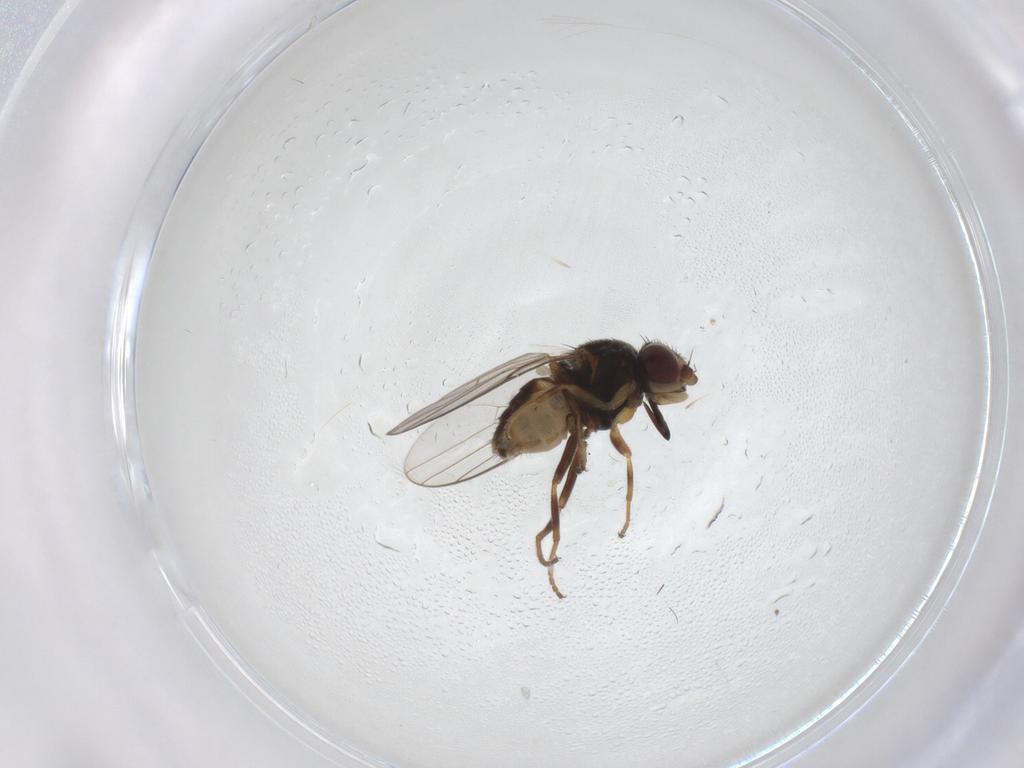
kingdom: Animalia
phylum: Arthropoda
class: Insecta
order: Diptera
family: Chloropidae
